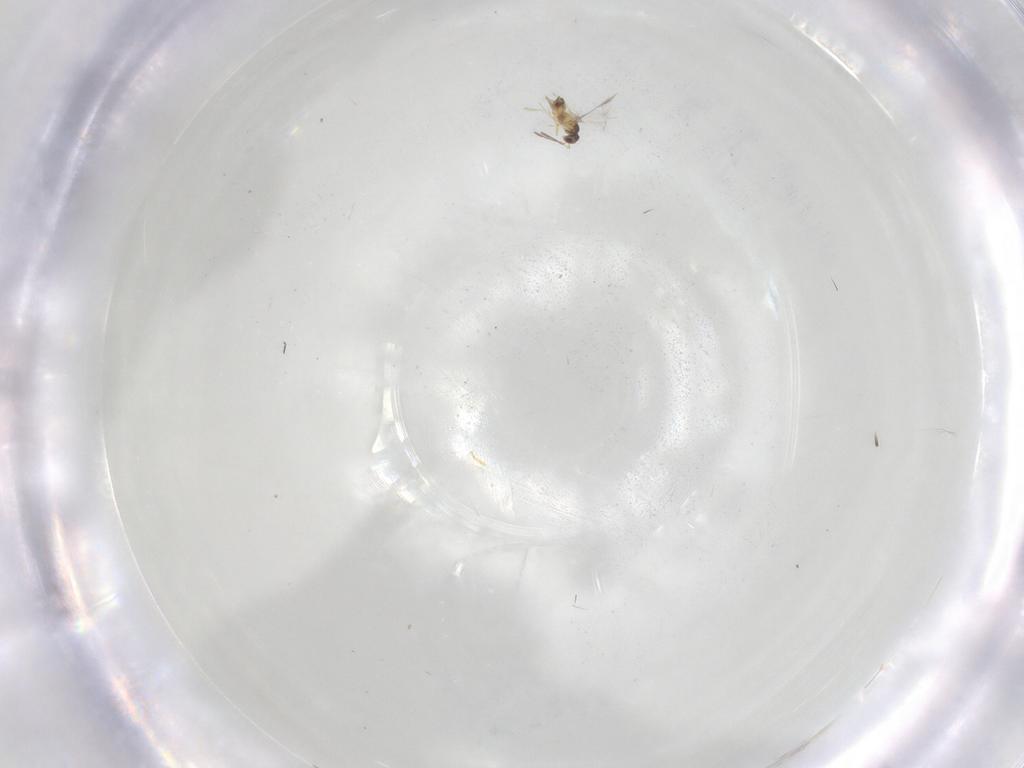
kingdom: Animalia
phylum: Arthropoda
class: Insecta
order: Hymenoptera
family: Mymaridae
